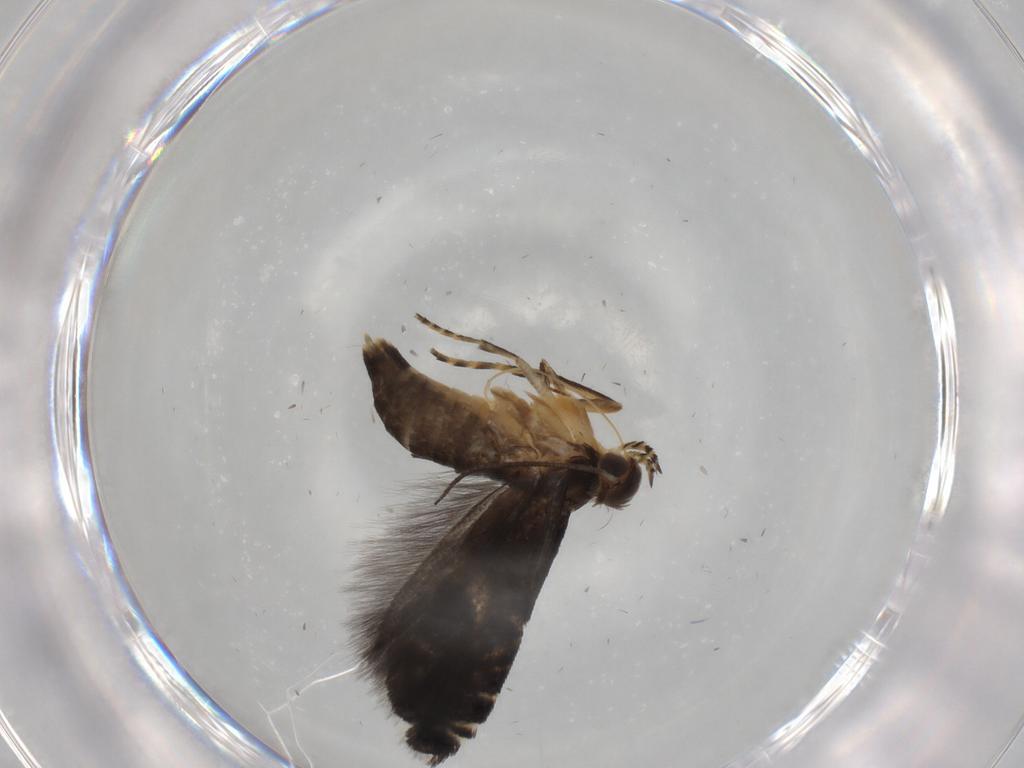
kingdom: Animalia
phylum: Arthropoda
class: Insecta
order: Lepidoptera
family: Glyphipterigidae
